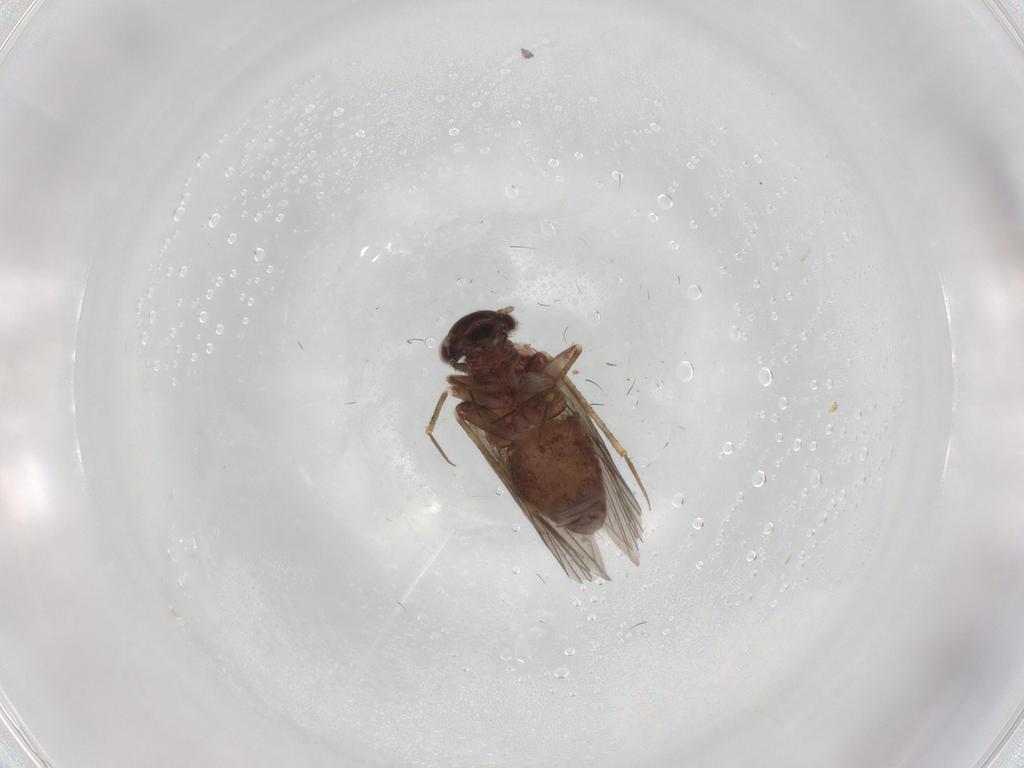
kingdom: Animalia
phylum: Arthropoda
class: Insecta
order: Psocodea
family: Lepidopsocidae
